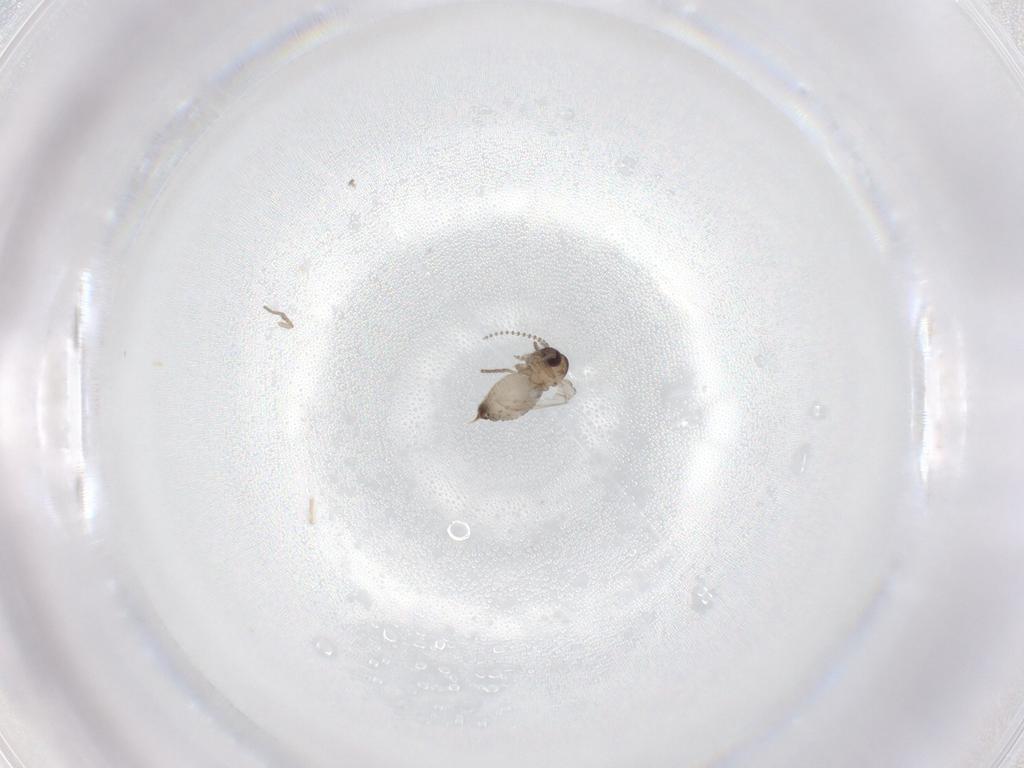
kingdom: Animalia
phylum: Arthropoda
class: Insecta
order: Diptera
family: Psychodidae
